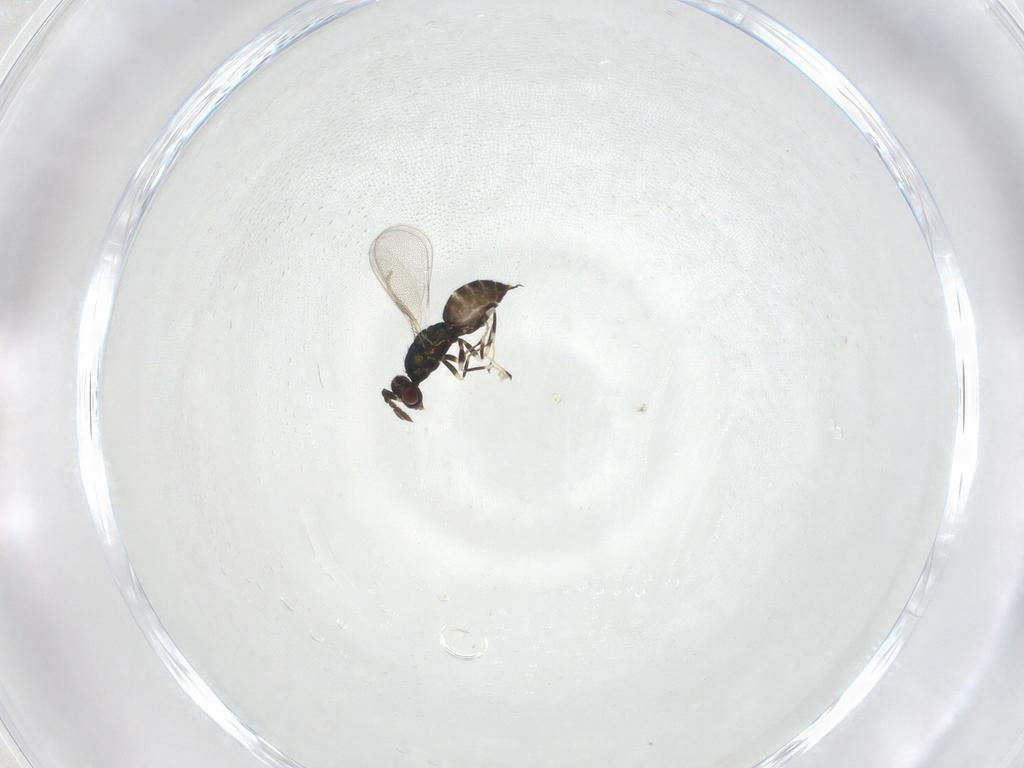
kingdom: Animalia
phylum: Arthropoda
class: Insecta
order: Hymenoptera
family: Eulophidae
